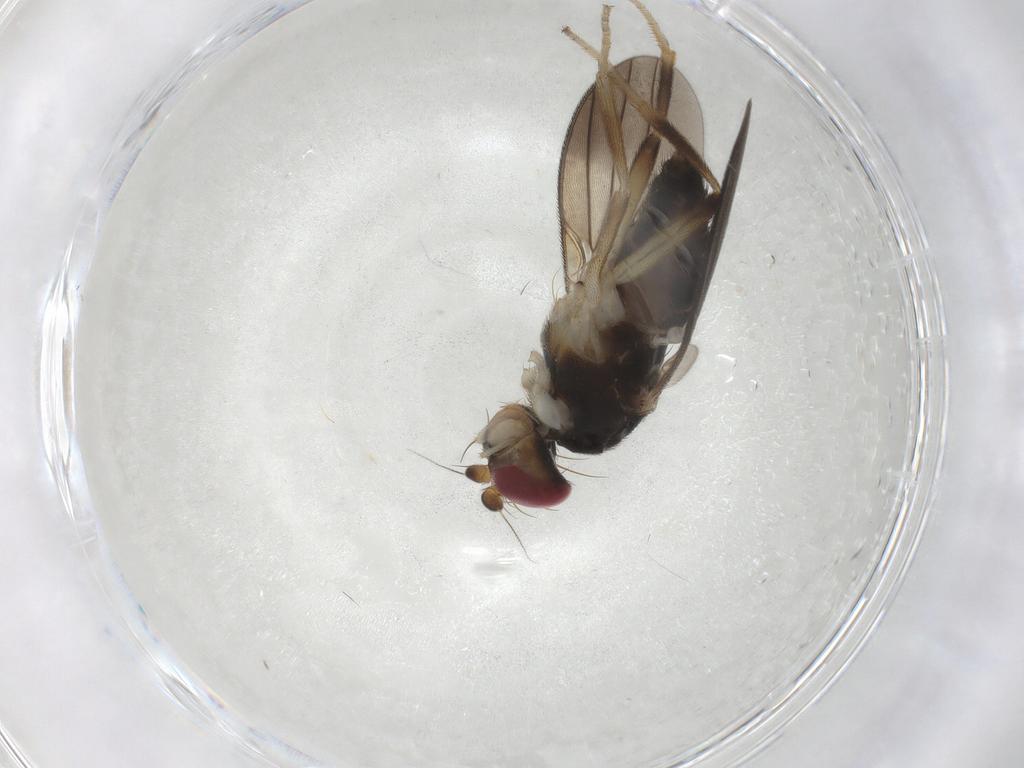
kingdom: Animalia
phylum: Arthropoda
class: Insecta
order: Diptera
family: Clusiidae
